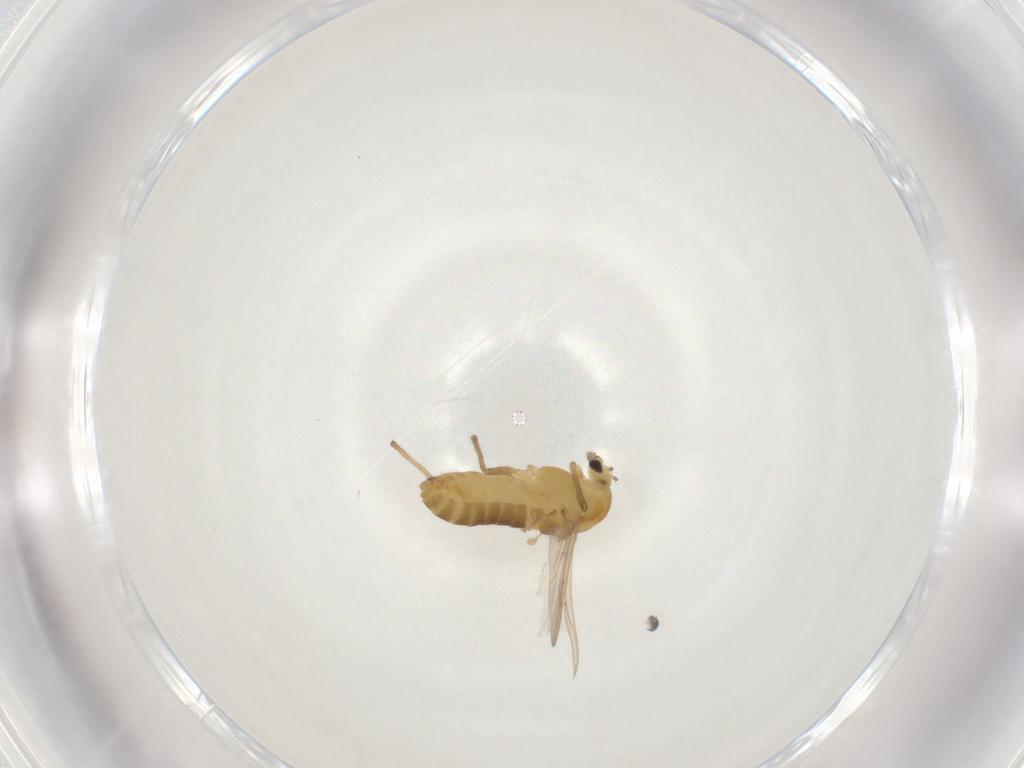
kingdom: Animalia
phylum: Arthropoda
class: Insecta
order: Diptera
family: Chironomidae
